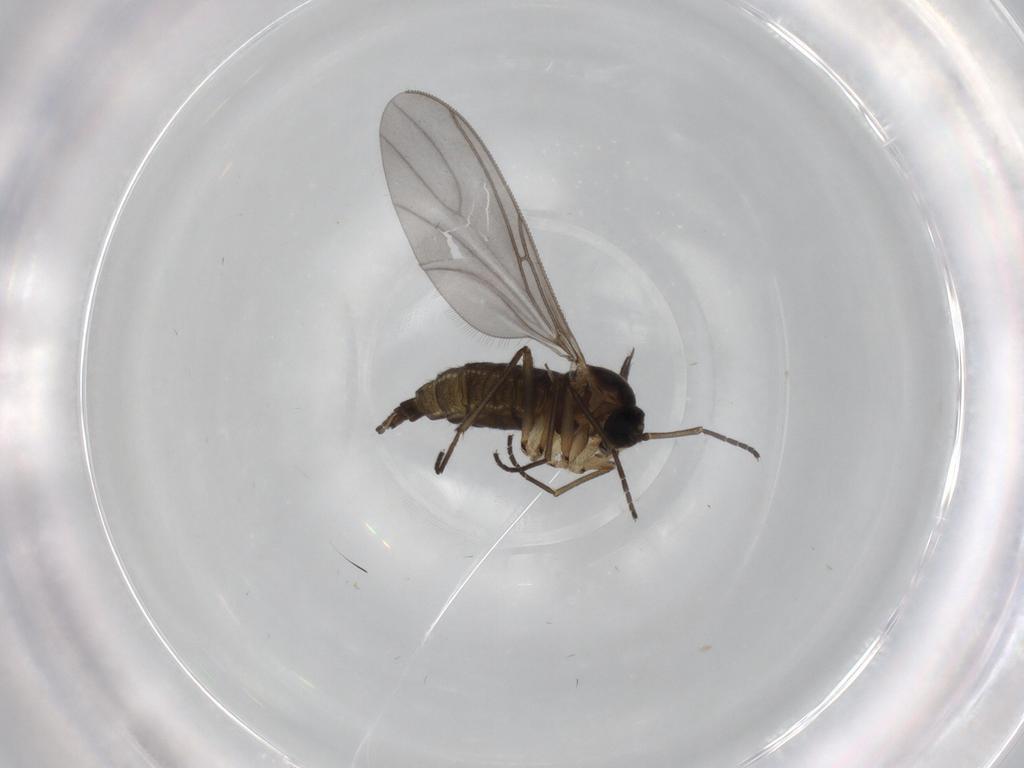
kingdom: Animalia
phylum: Arthropoda
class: Insecta
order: Diptera
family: Sciaridae
